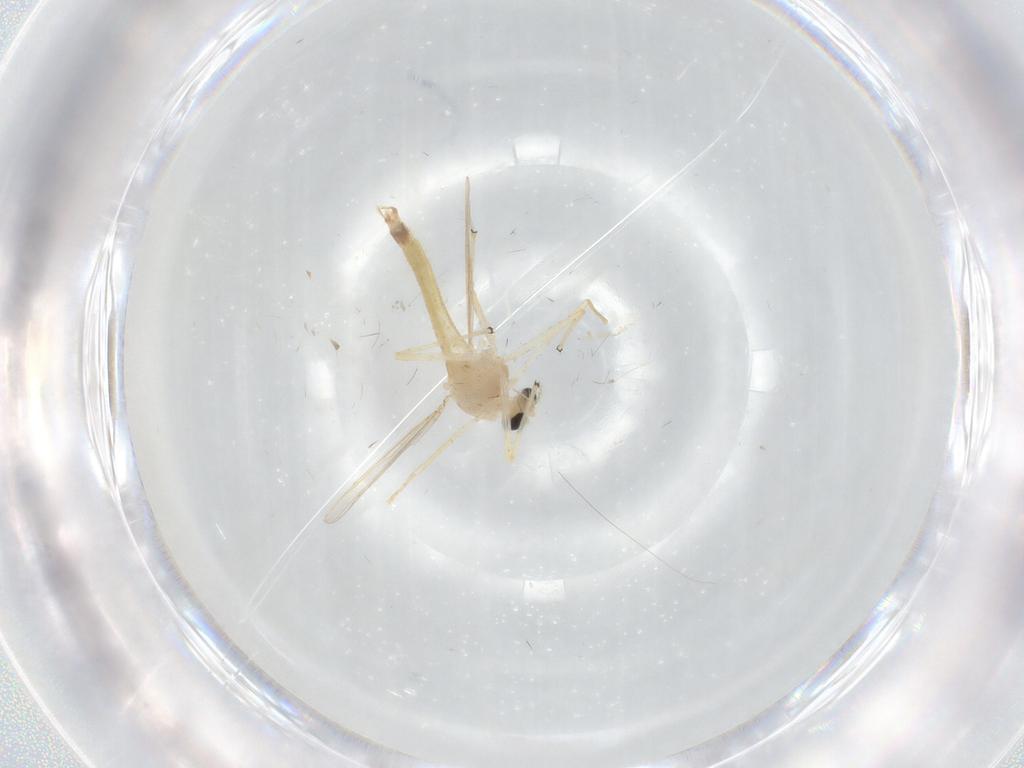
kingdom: Animalia
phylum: Arthropoda
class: Insecta
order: Diptera
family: Chironomidae
